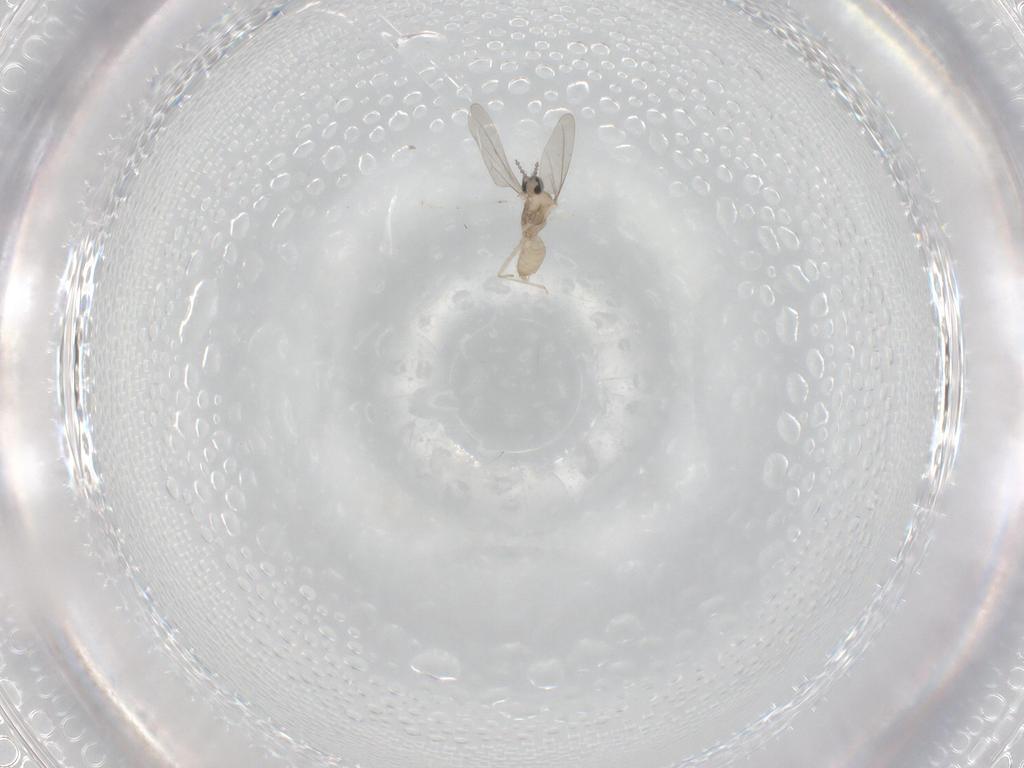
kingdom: Animalia
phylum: Arthropoda
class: Insecta
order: Diptera
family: Cecidomyiidae
